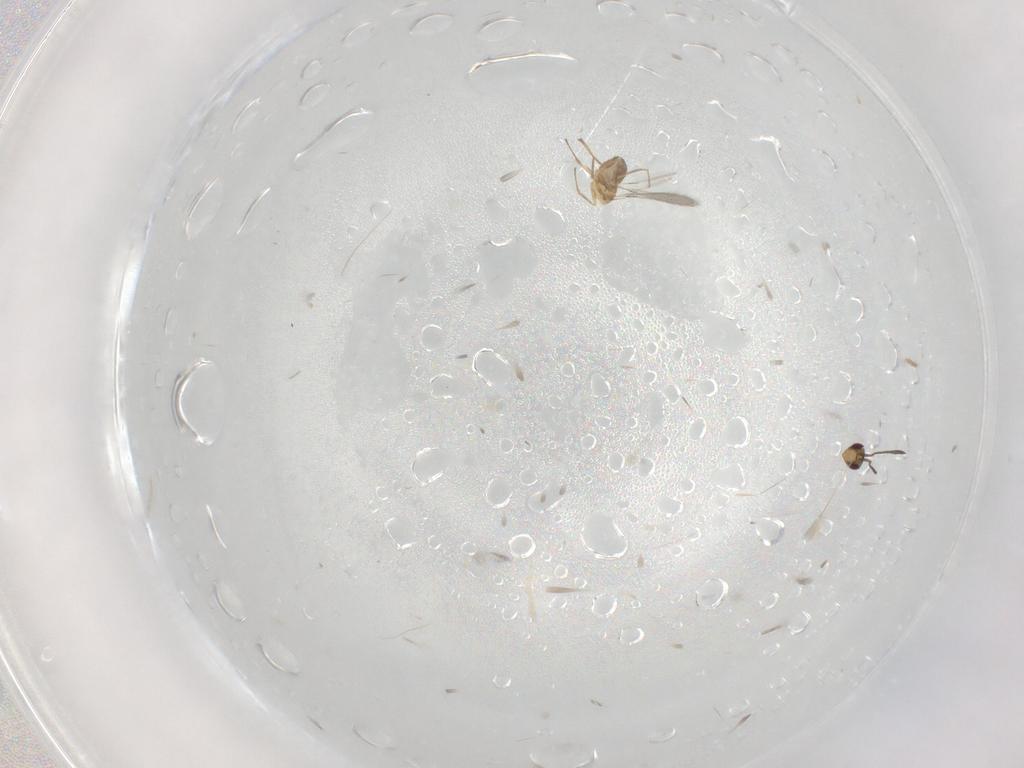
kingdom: Animalia
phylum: Arthropoda
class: Insecta
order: Hymenoptera
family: Mymaridae
